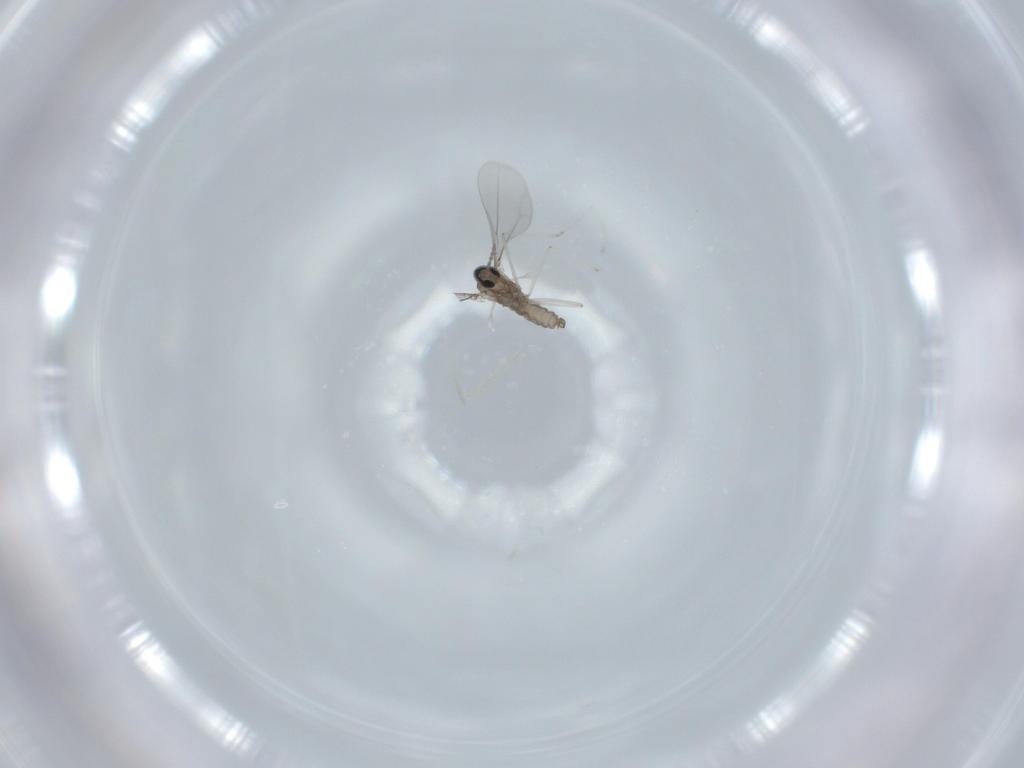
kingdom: Animalia
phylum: Arthropoda
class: Insecta
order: Diptera
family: Cecidomyiidae
